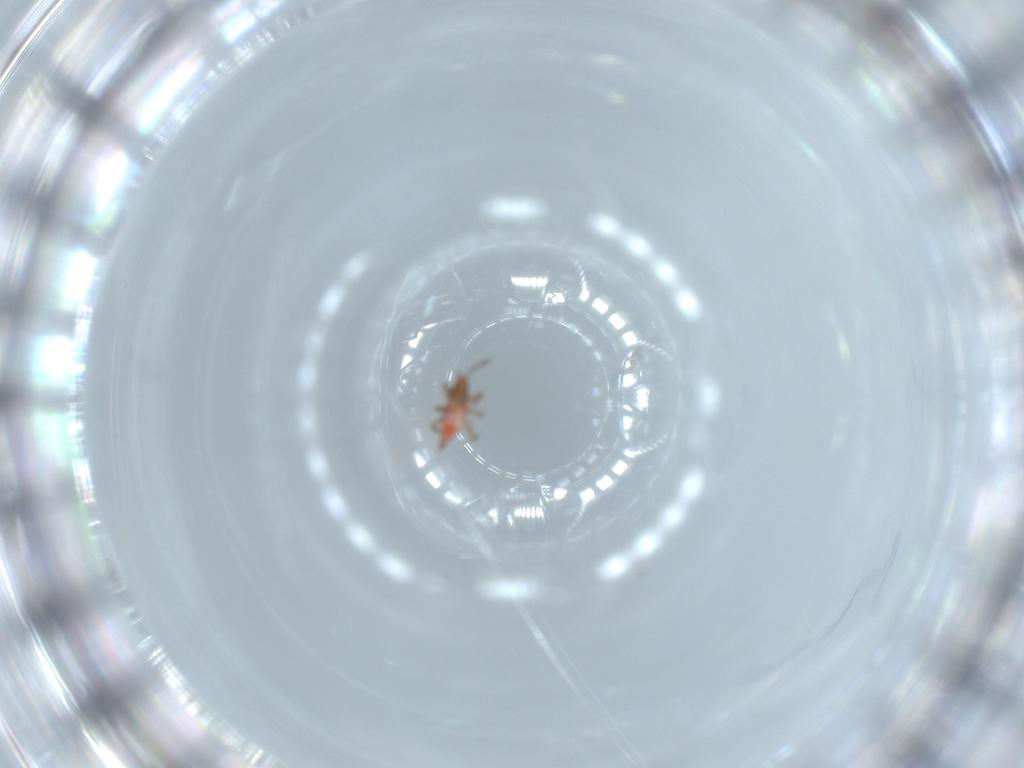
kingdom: Animalia
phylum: Arthropoda
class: Insecta
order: Thysanoptera
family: Phlaeothripidae
